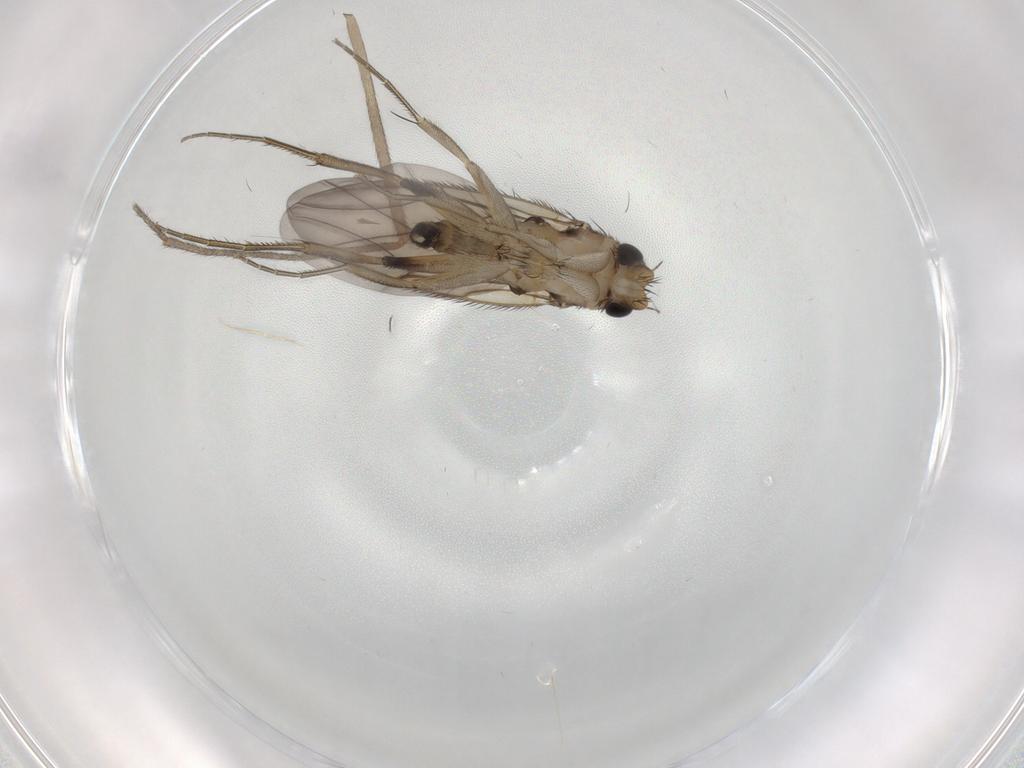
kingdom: Animalia
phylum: Arthropoda
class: Insecta
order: Diptera
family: Phoridae
